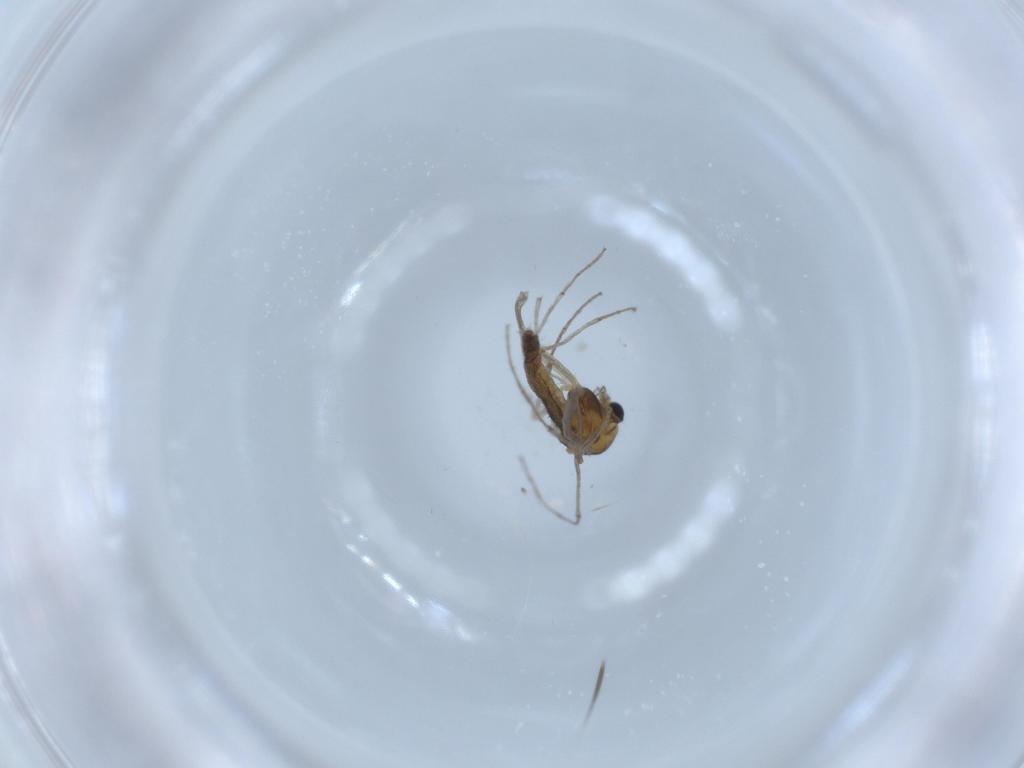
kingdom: Animalia
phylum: Arthropoda
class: Insecta
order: Diptera
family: Chironomidae
